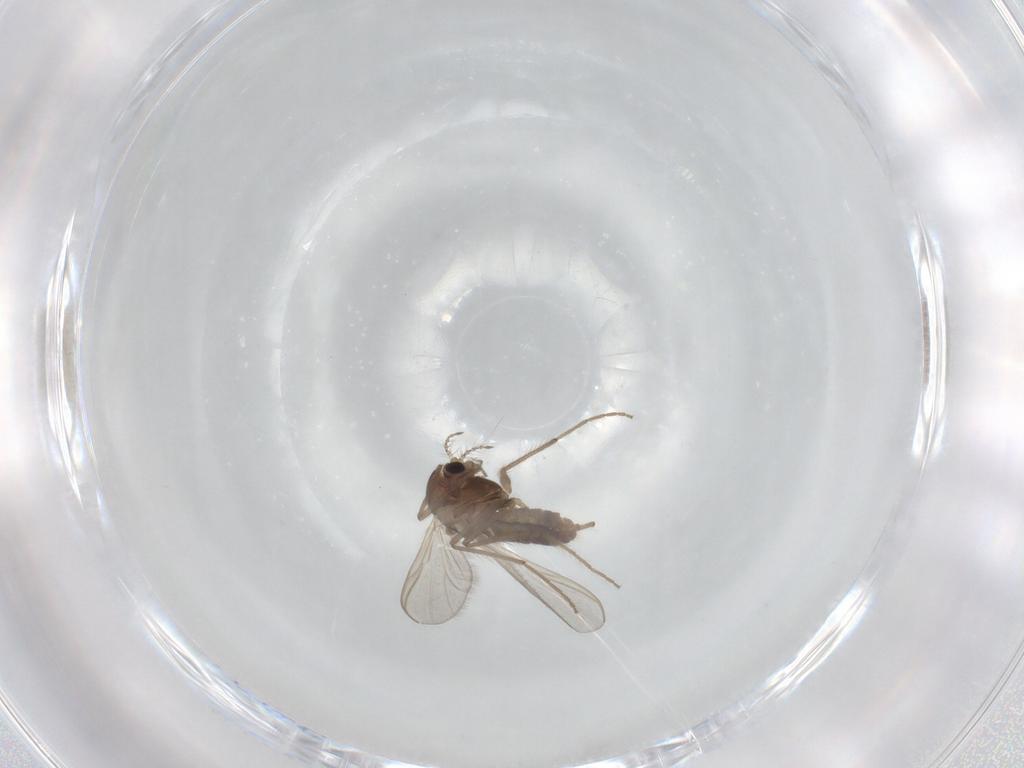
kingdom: Animalia
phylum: Arthropoda
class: Insecta
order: Diptera
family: Chironomidae
